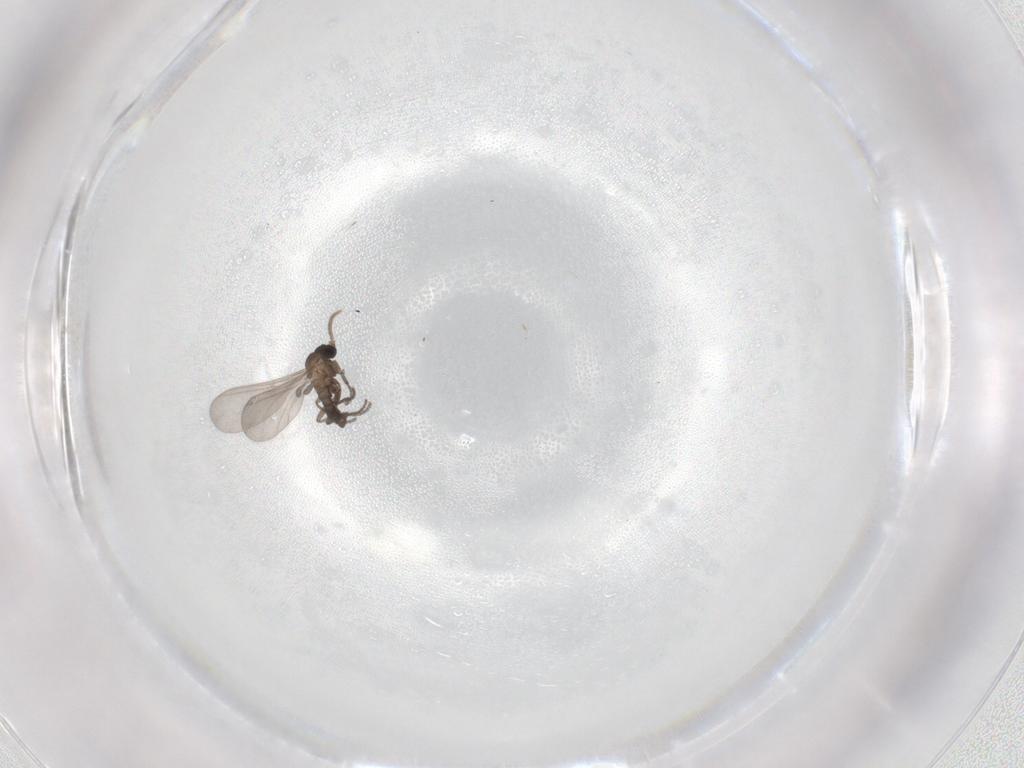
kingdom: Animalia
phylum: Arthropoda
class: Insecta
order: Diptera
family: Sciaridae
